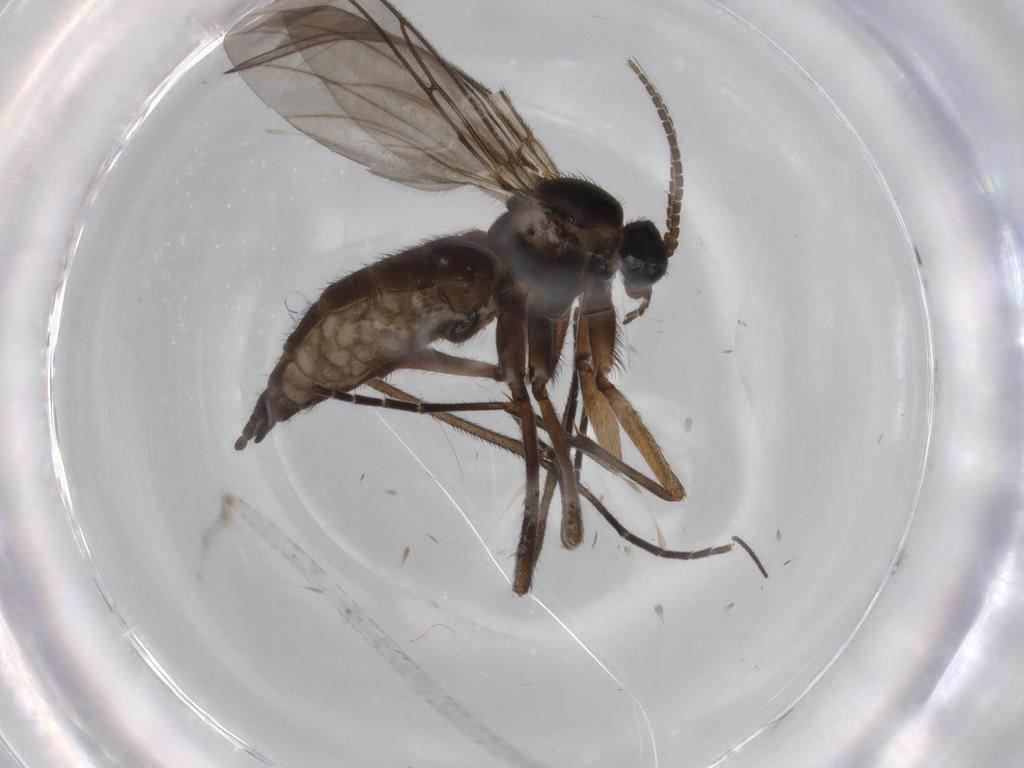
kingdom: Animalia
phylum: Arthropoda
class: Insecta
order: Diptera
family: Sciaridae
